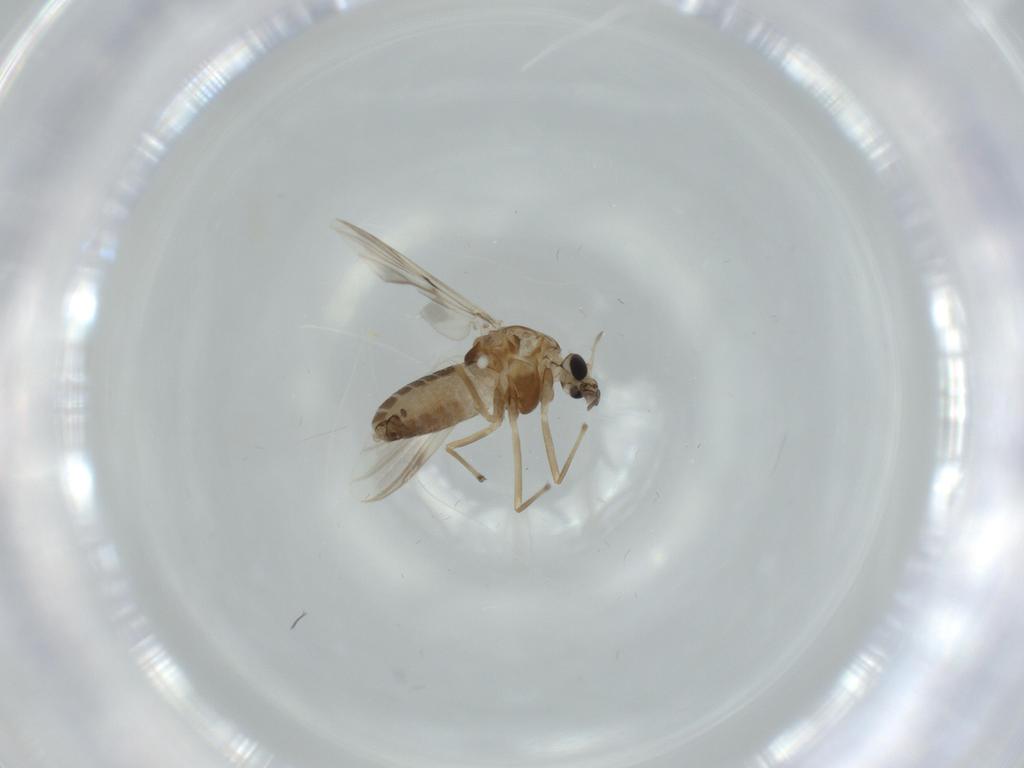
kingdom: Animalia
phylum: Arthropoda
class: Insecta
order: Diptera
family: Chironomidae
